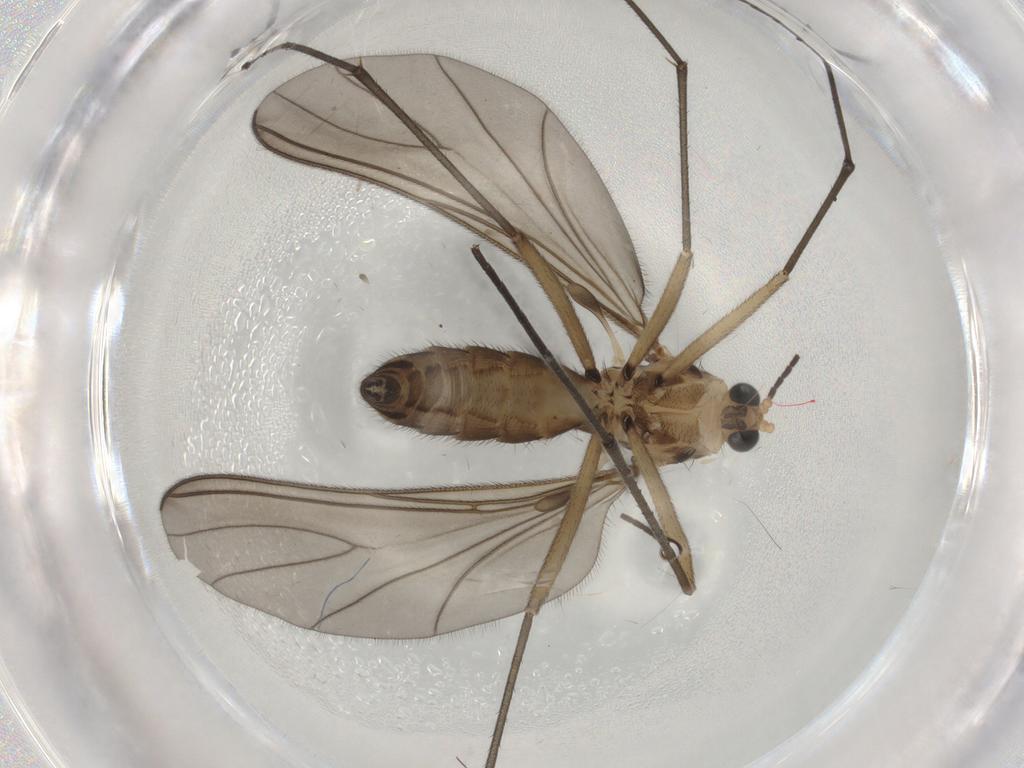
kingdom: Animalia
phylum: Arthropoda
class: Insecta
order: Diptera
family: Sciaridae
